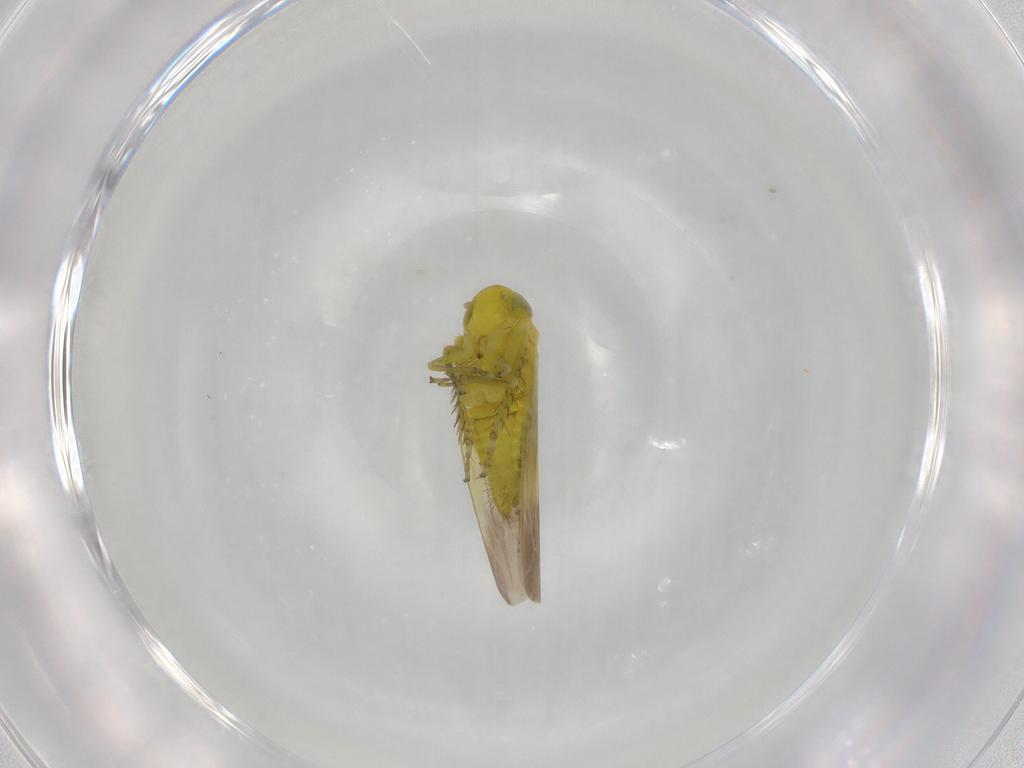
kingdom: Animalia
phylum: Arthropoda
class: Insecta
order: Hemiptera
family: Cicadellidae
